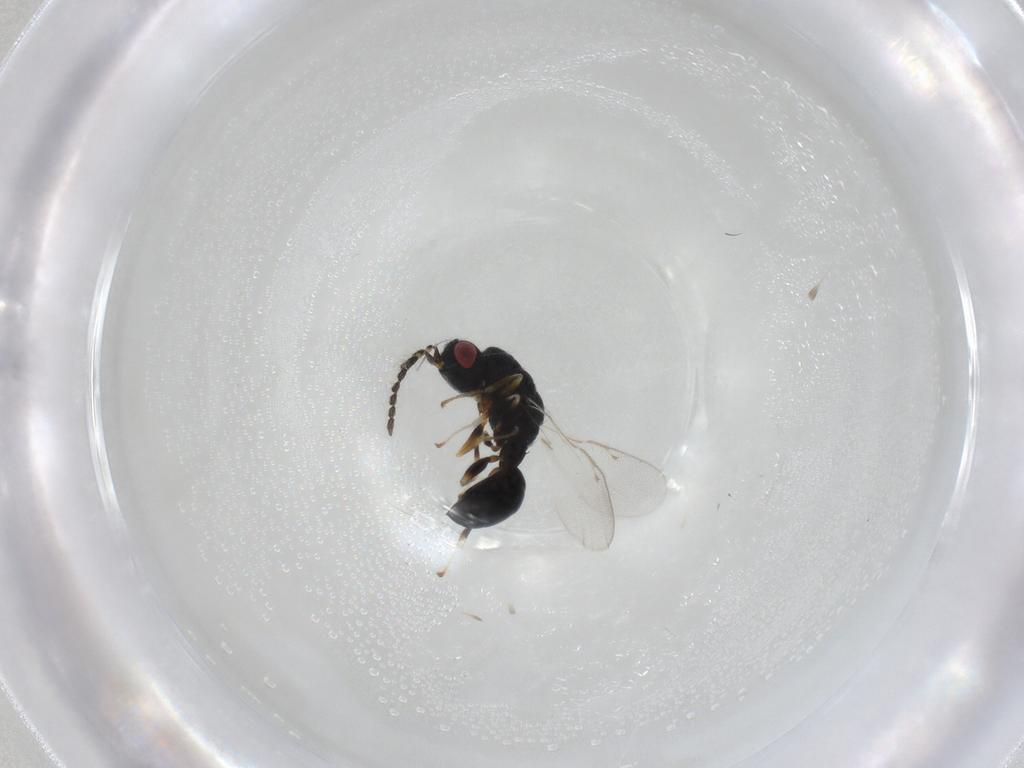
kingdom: Animalia
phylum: Arthropoda
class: Insecta
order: Hymenoptera
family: Eurytomidae
